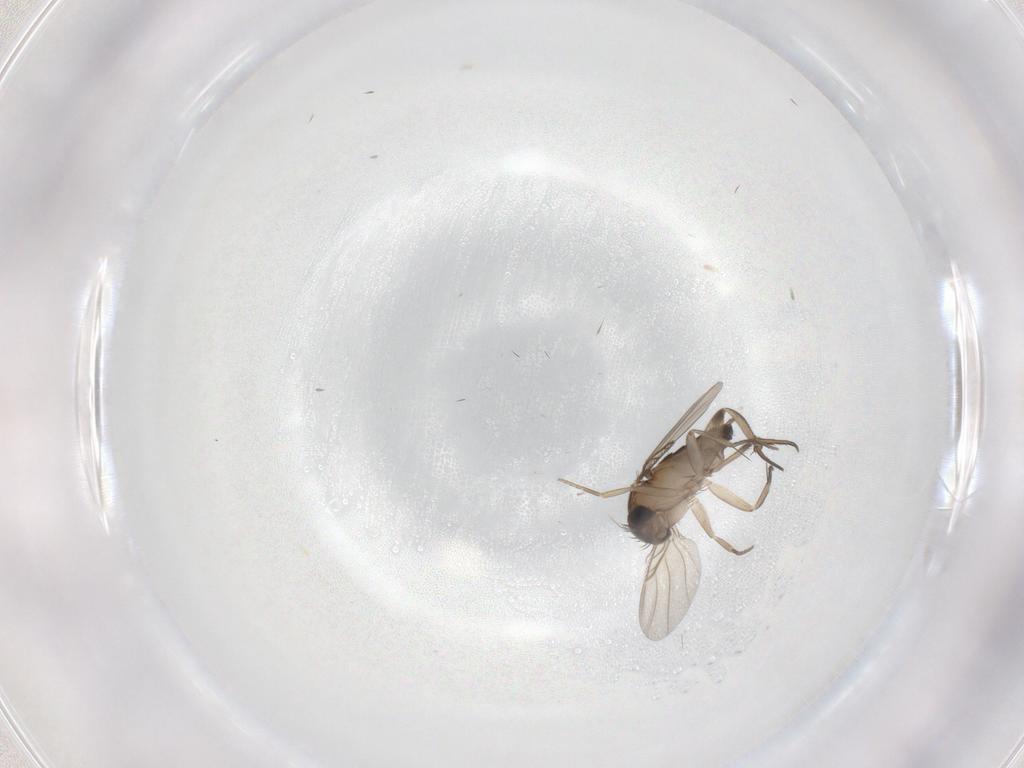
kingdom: Animalia
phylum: Arthropoda
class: Insecta
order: Diptera
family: Phoridae
